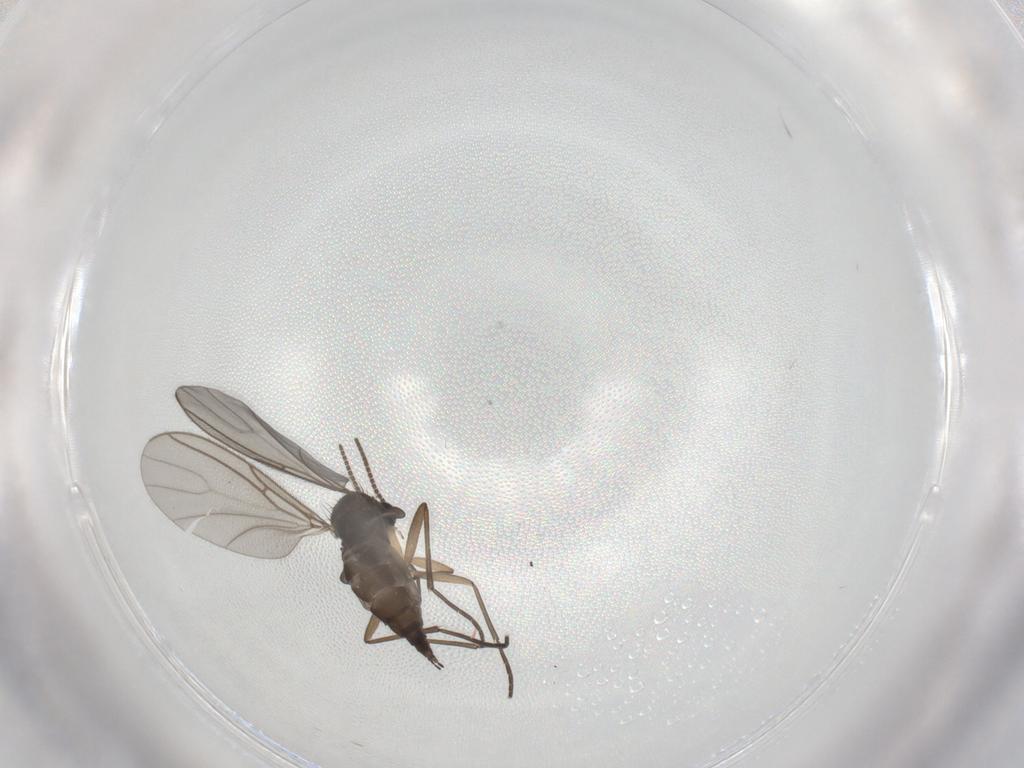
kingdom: Animalia
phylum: Arthropoda
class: Insecta
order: Diptera
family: Sciaridae
